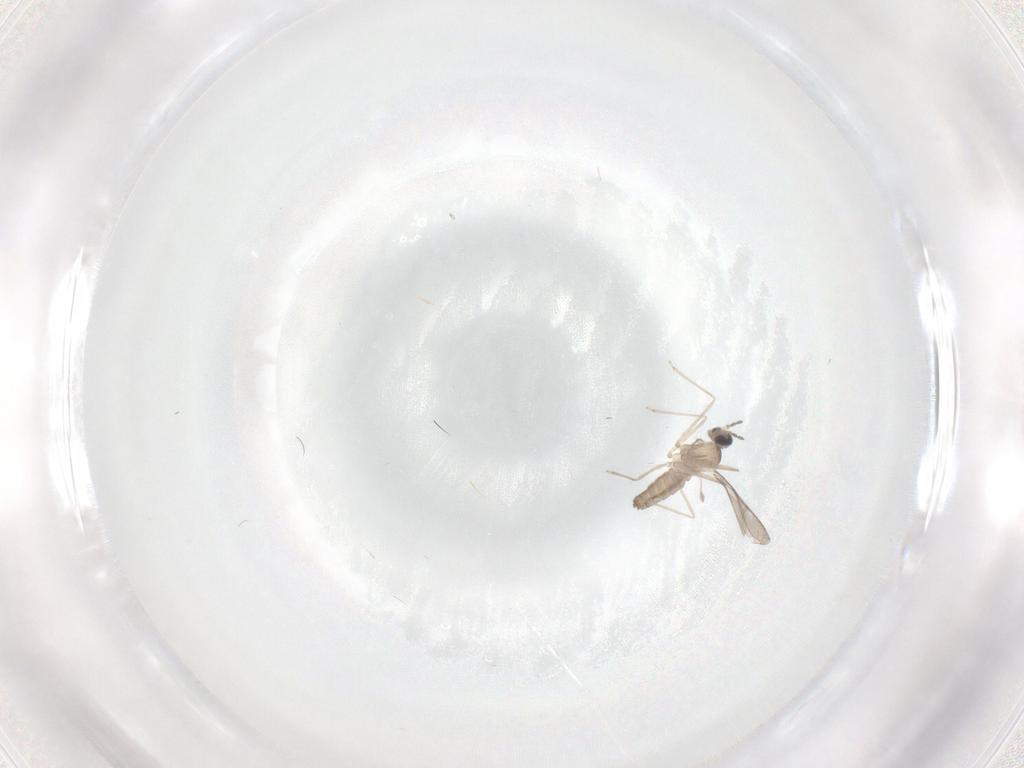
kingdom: Animalia
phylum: Arthropoda
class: Insecta
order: Diptera
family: Cecidomyiidae
